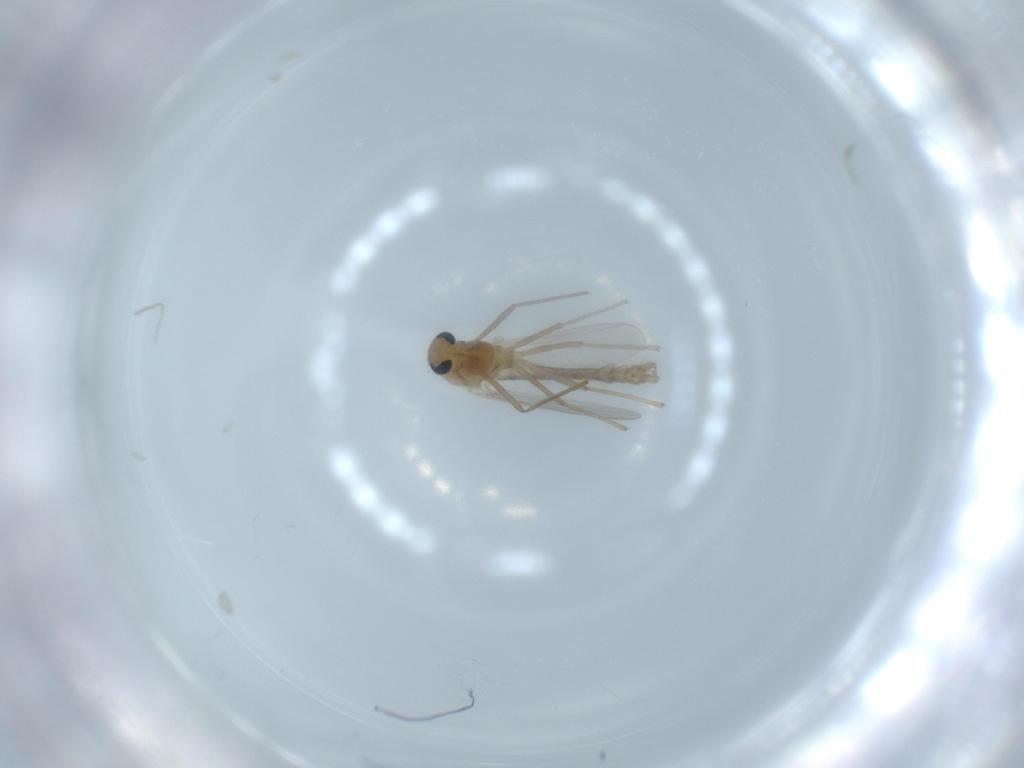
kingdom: Animalia
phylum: Arthropoda
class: Insecta
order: Diptera
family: Chironomidae
